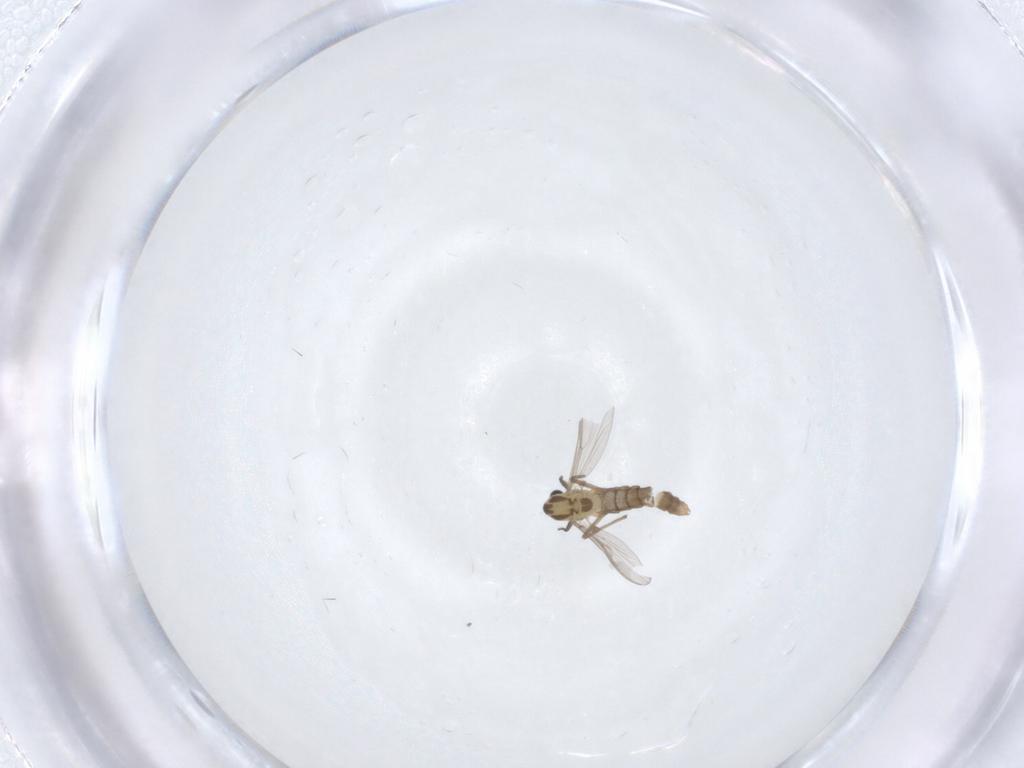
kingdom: Animalia
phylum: Arthropoda
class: Insecta
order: Diptera
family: Chironomidae
